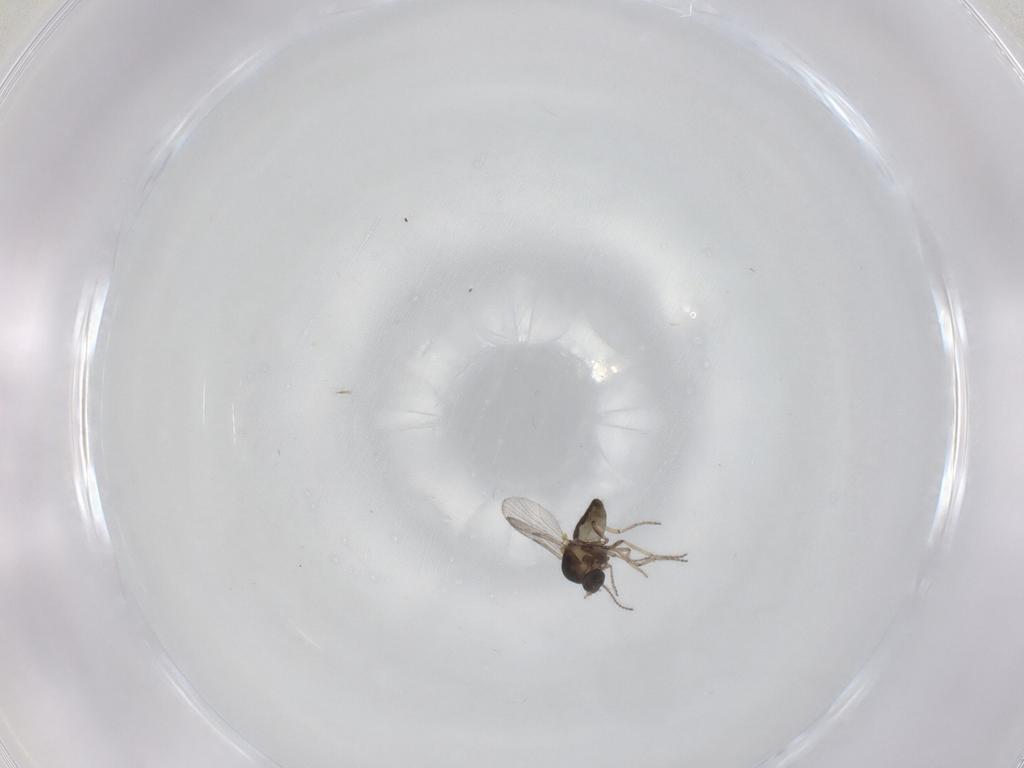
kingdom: Animalia
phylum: Arthropoda
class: Insecta
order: Diptera
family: Ceratopogonidae
